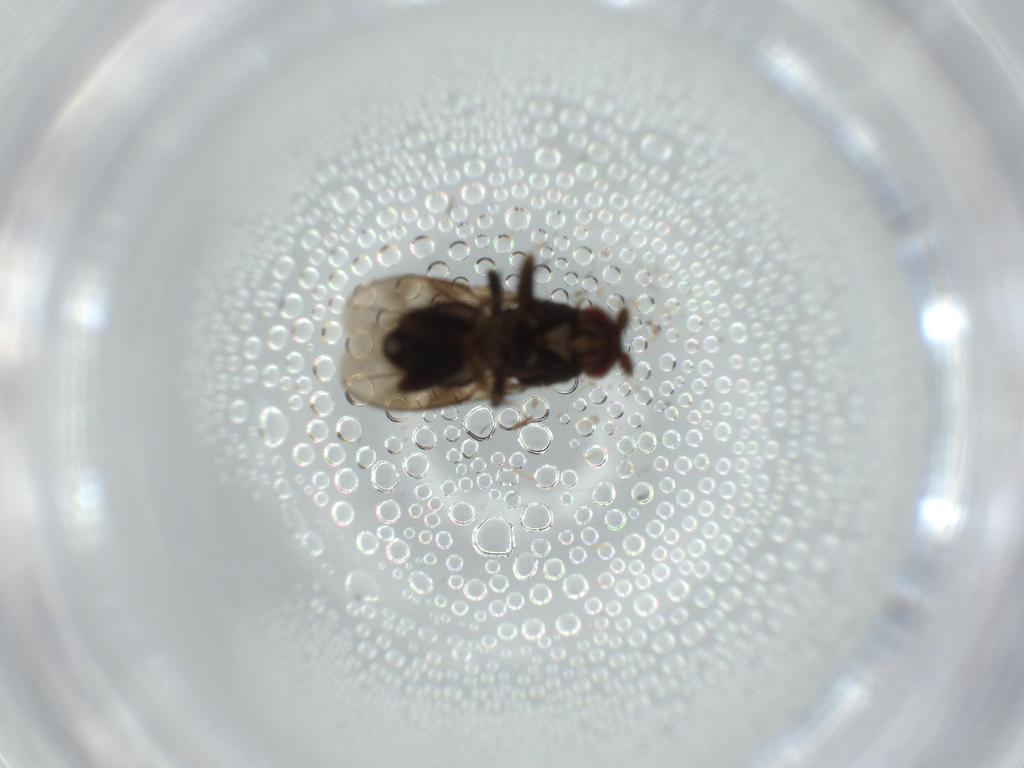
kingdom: Animalia
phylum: Arthropoda
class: Insecta
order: Diptera
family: Sphaeroceridae
